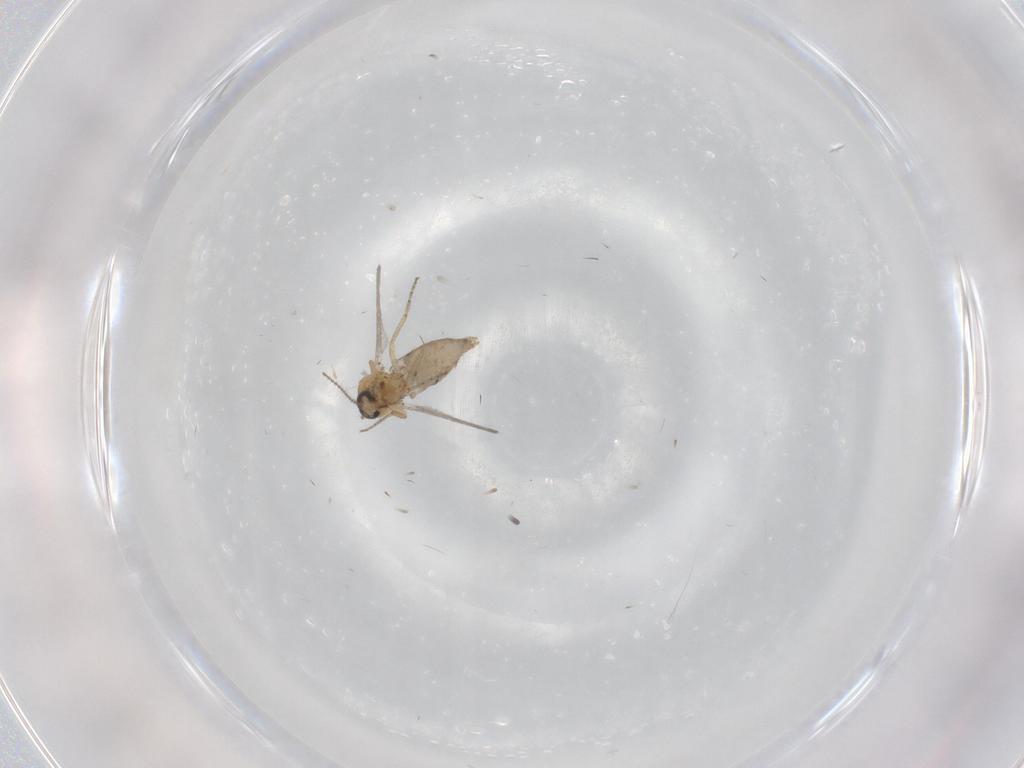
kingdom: Animalia
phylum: Arthropoda
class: Insecta
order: Diptera
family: Ceratopogonidae
